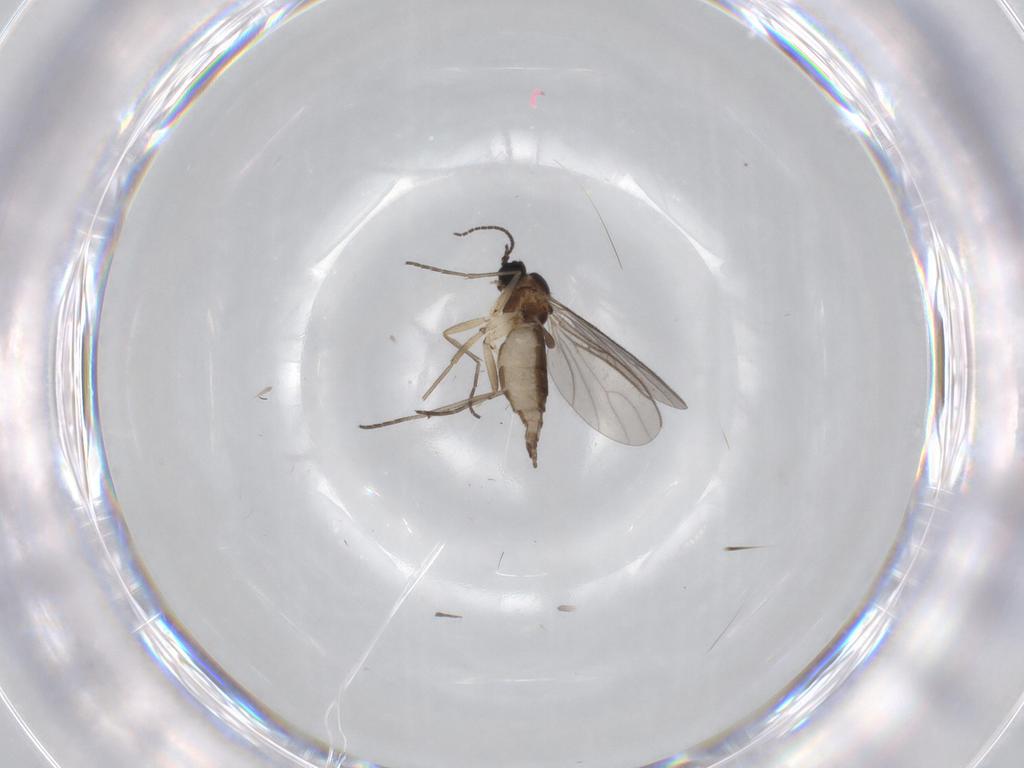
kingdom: Animalia
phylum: Arthropoda
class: Insecta
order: Diptera
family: Sciaridae
